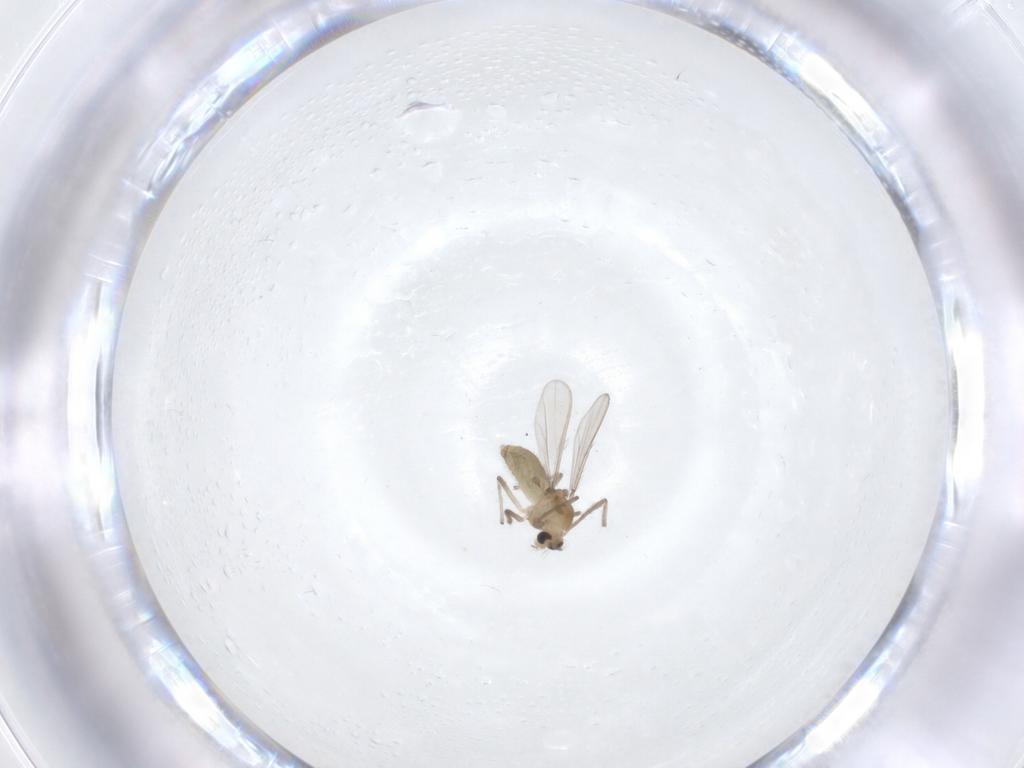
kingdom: Animalia
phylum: Arthropoda
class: Insecta
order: Diptera
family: Chironomidae
